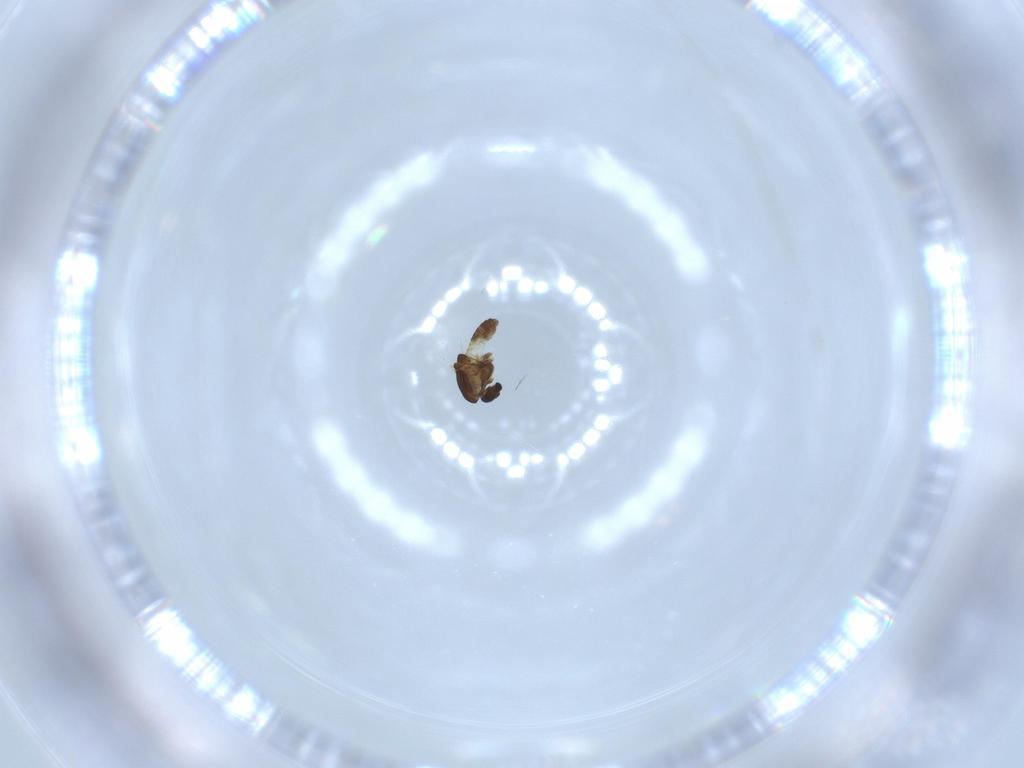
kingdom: Animalia
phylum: Arthropoda
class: Insecta
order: Diptera
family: Chironomidae
